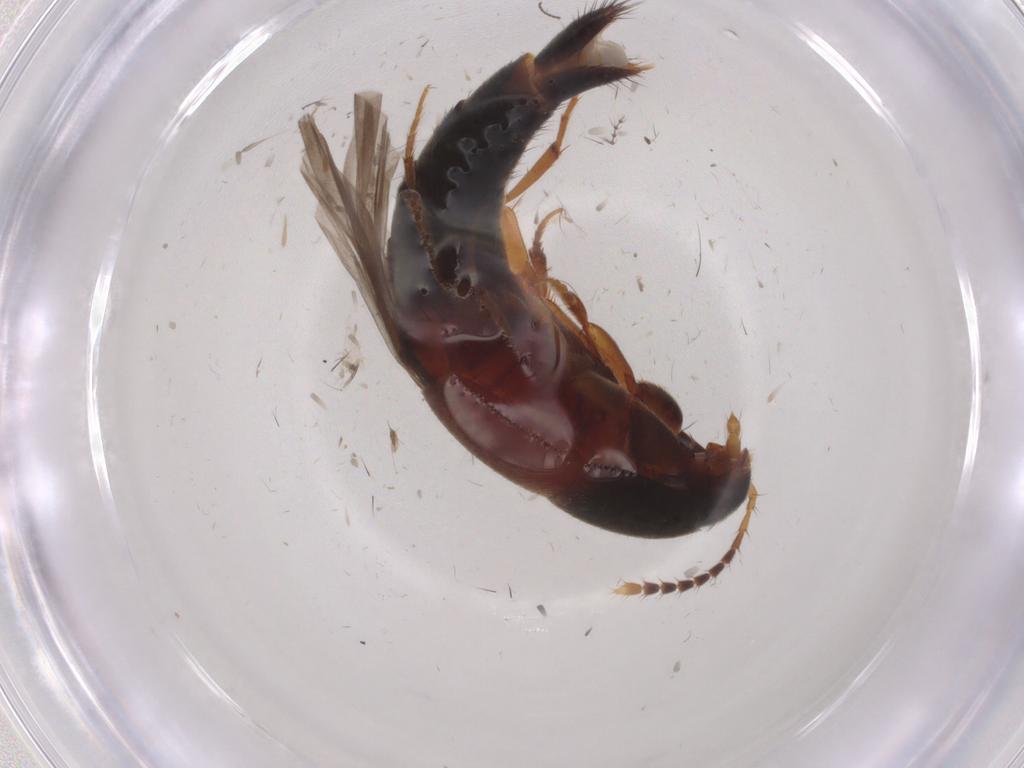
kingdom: Animalia
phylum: Arthropoda
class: Insecta
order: Coleoptera
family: Staphylinidae
